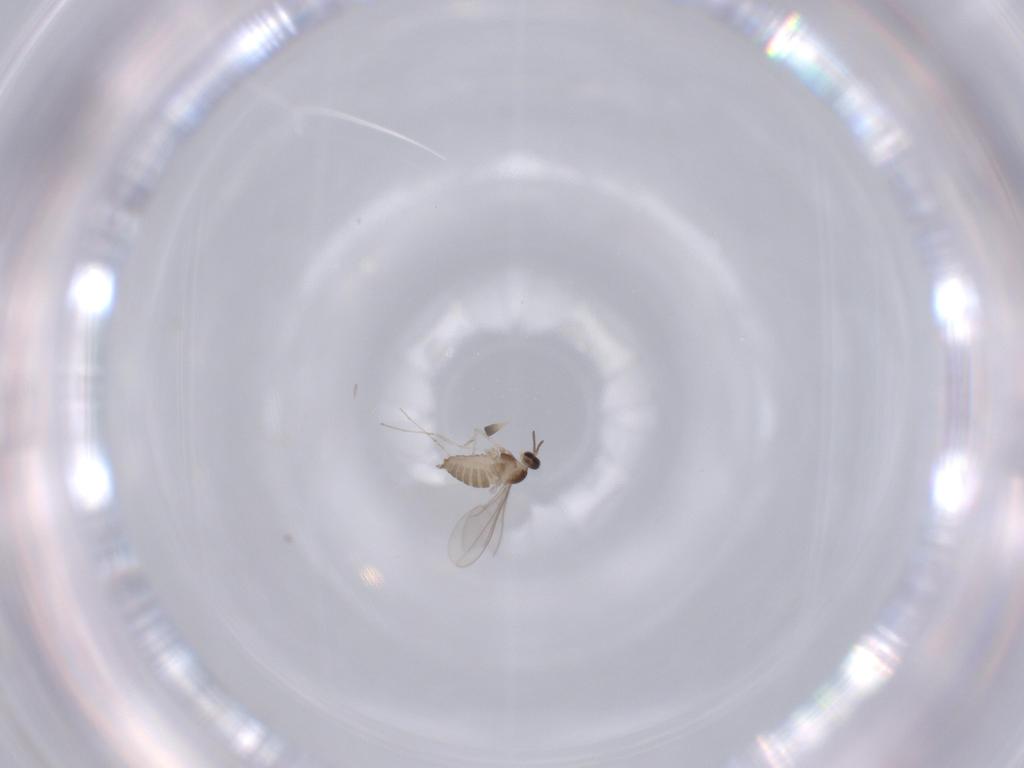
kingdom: Animalia
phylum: Arthropoda
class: Insecta
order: Diptera
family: Cecidomyiidae
